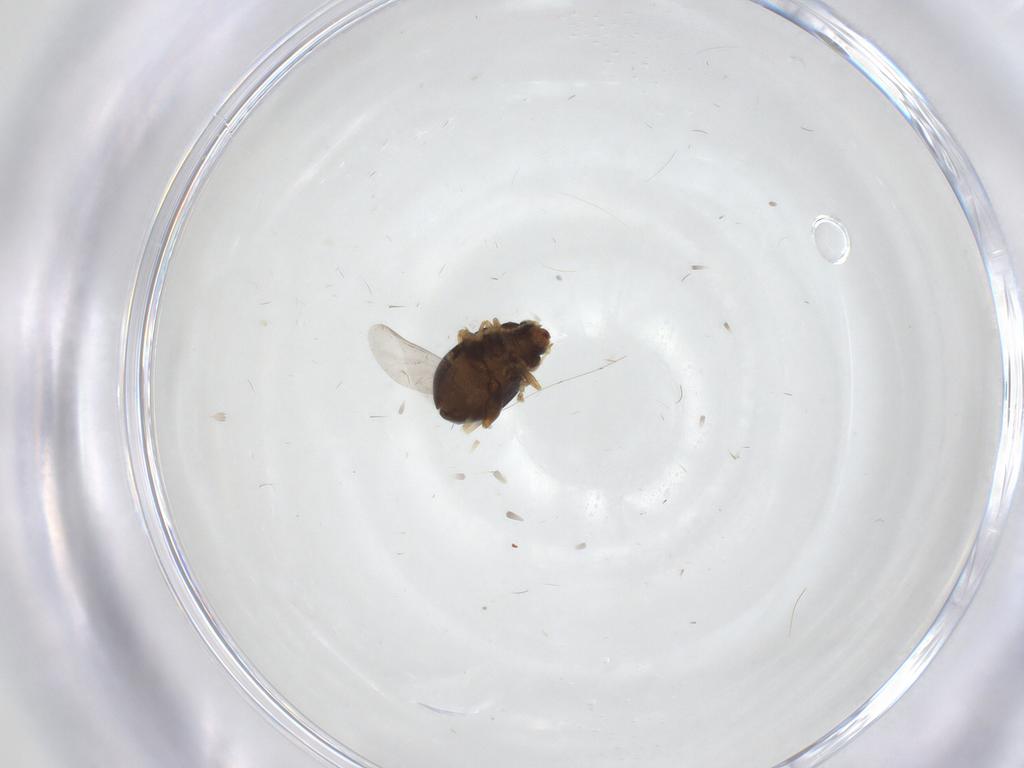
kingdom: Animalia
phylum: Arthropoda
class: Insecta
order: Coleoptera
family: Chrysomelidae
